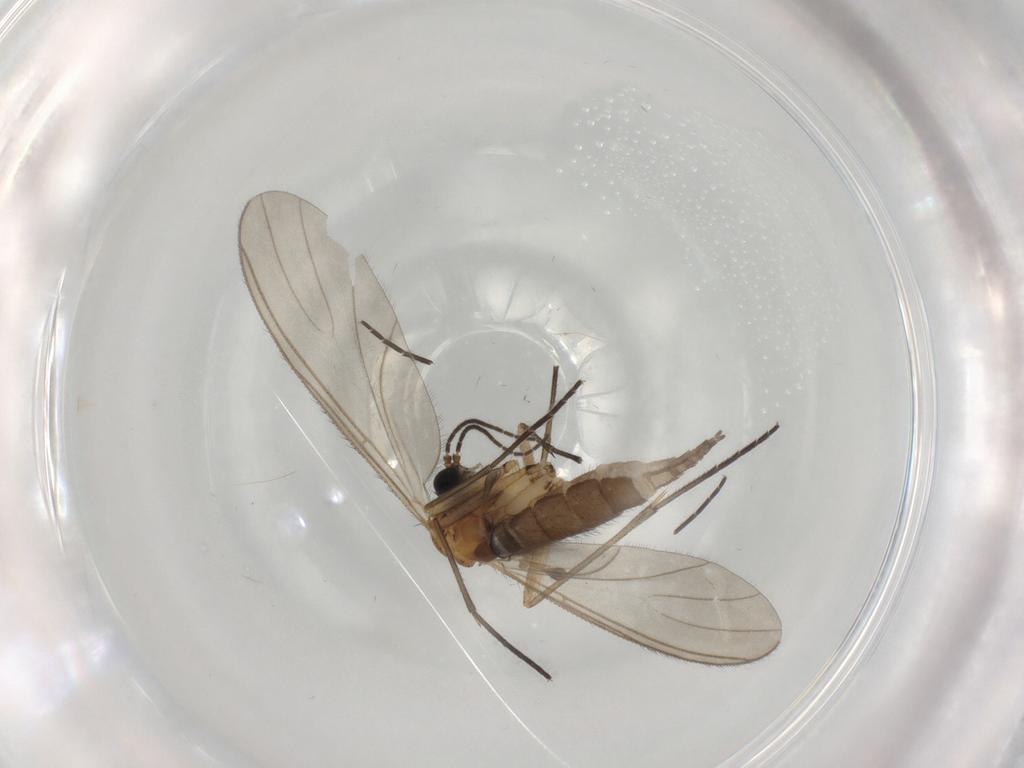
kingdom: Animalia
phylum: Arthropoda
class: Insecta
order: Diptera
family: Sciaridae
